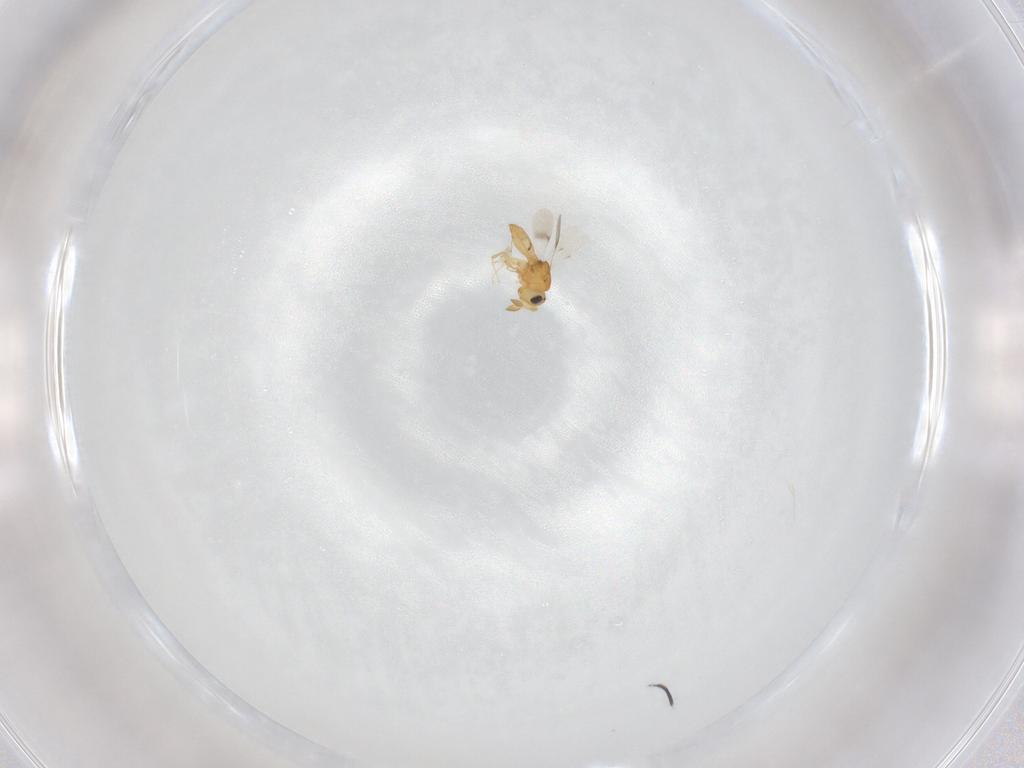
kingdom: Animalia
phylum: Arthropoda
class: Insecta
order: Hymenoptera
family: Scelionidae
